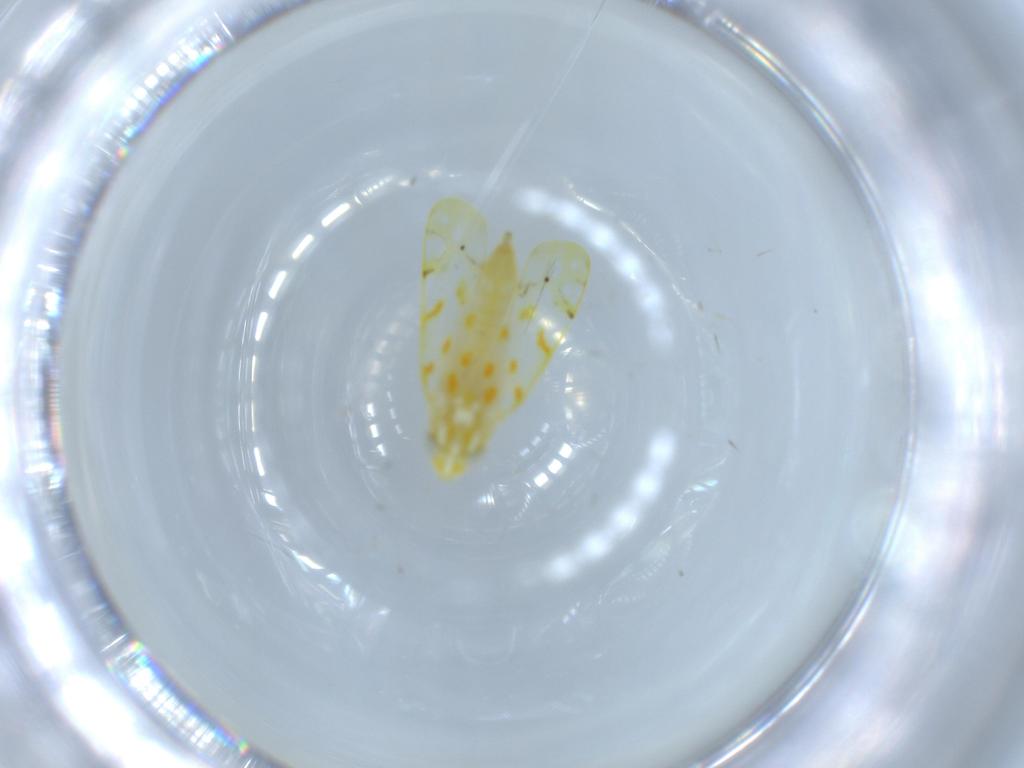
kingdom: Animalia
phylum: Arthropoda
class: Insecta
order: Hemiptera
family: Cicadellidae
